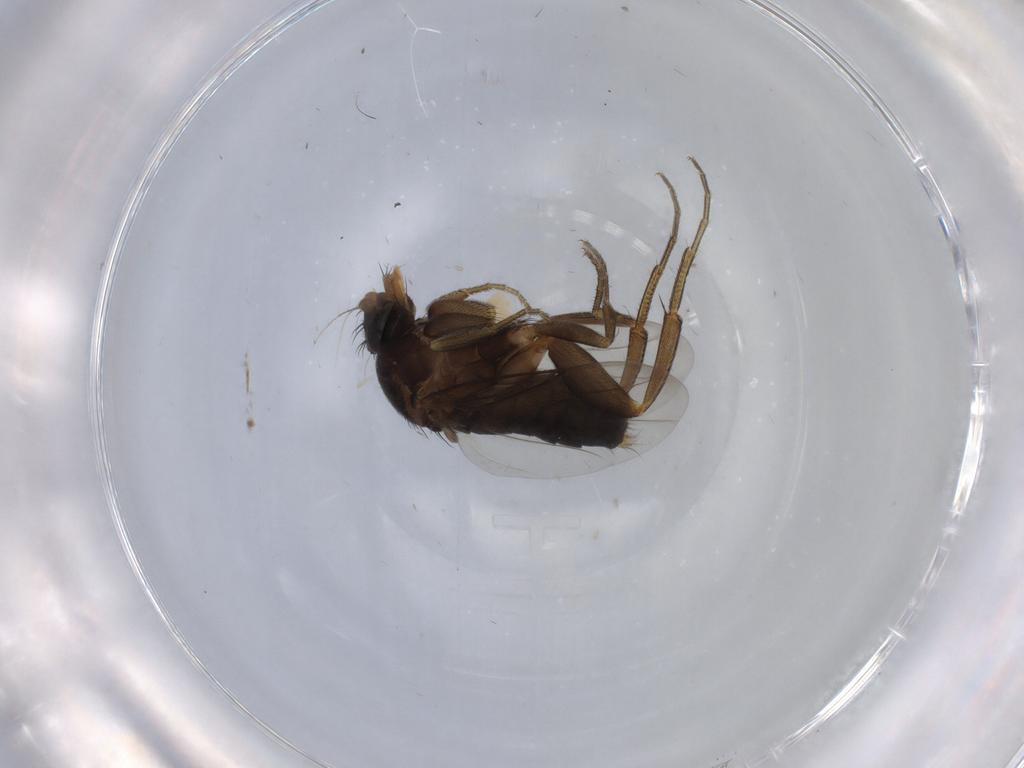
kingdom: Animalia
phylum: Arthropoda
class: Insecta
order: Diptera
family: Phoridae
